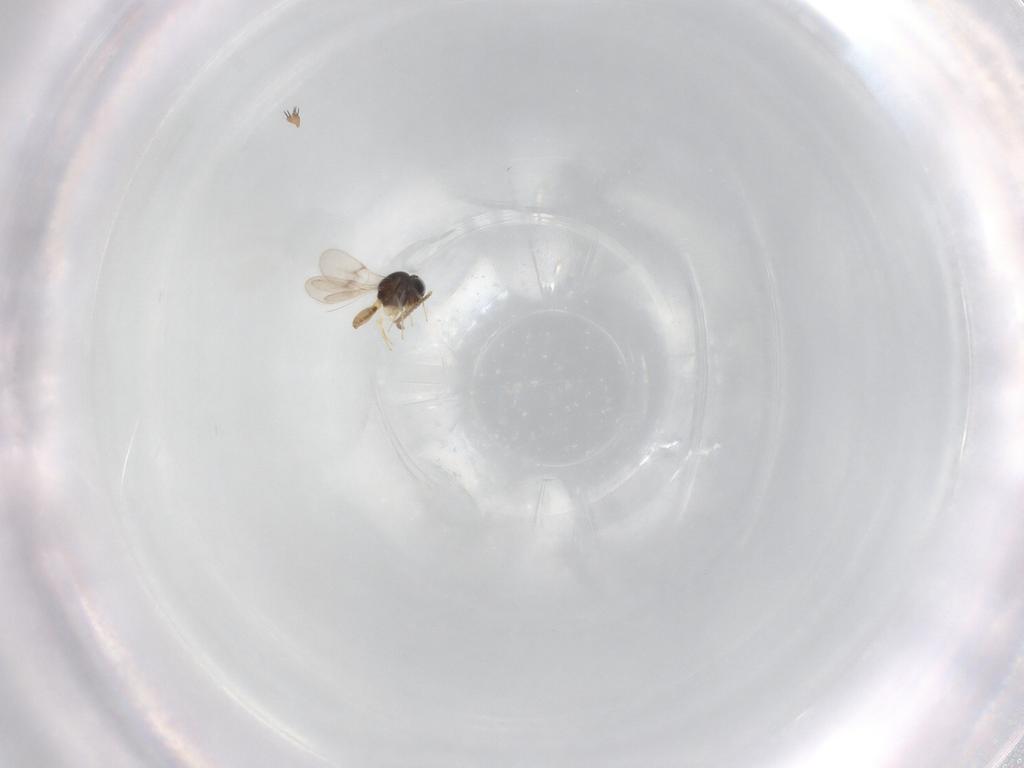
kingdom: Animalia
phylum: Arthropoda
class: Insecta
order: Hymenoptera
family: Scelionidae
